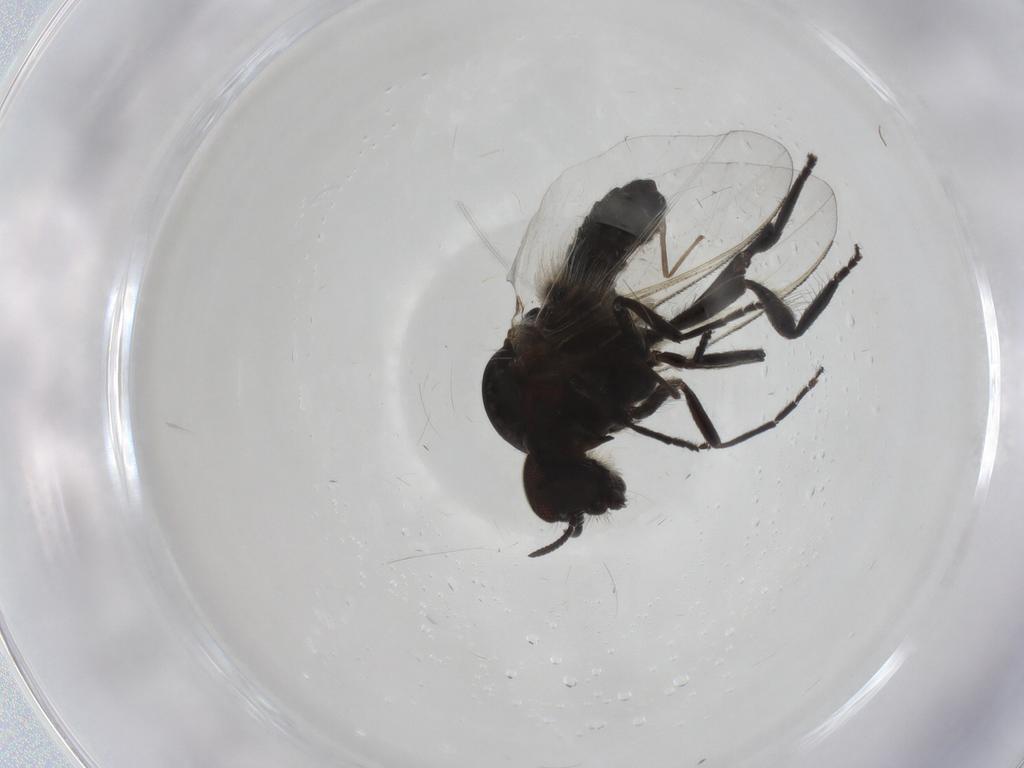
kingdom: Animalia
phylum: Arthropoda
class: Insecta
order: Diptera
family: Simuliidae
